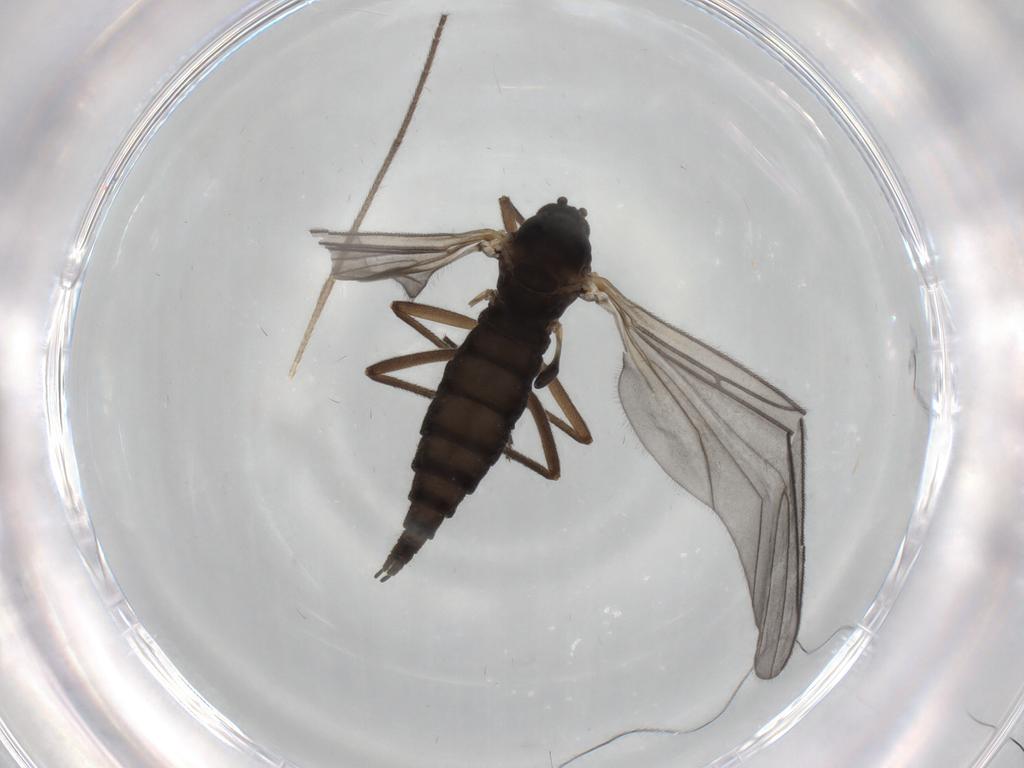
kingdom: Animalia
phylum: Arthropoda
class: Insecta
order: Diptera
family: Sciaridae
